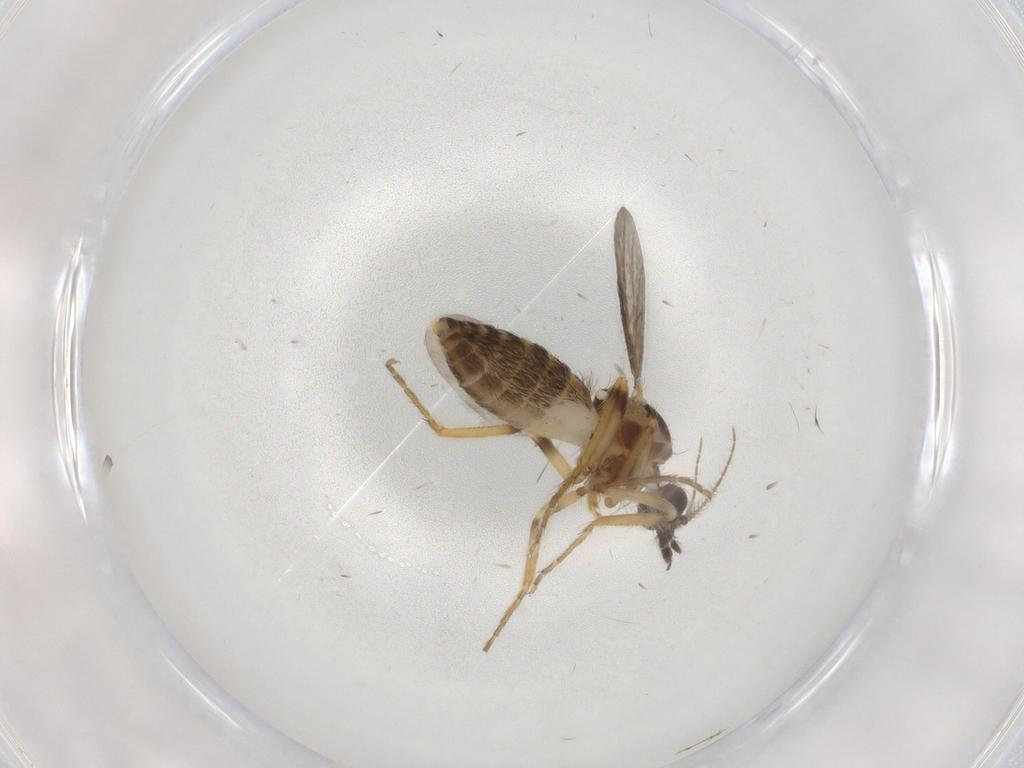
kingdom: Animalia
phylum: Arthropoda
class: Insecta
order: Diptera
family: Ceratopogonidae
